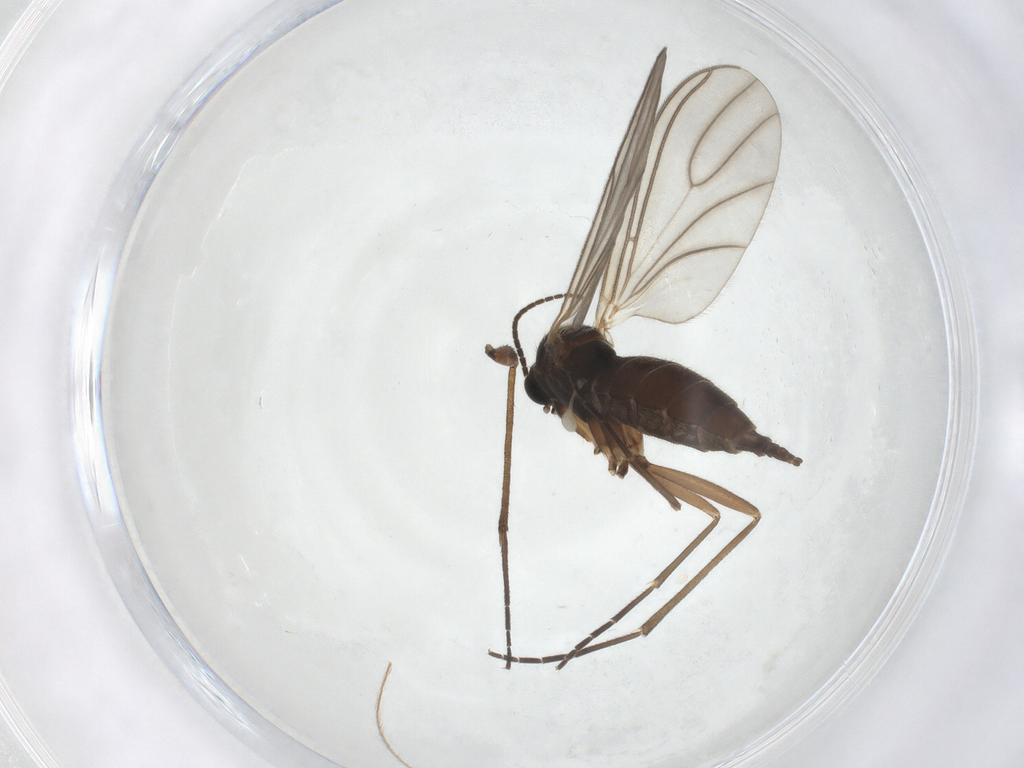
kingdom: Animalia
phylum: Arthropoda
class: Insecta
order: Diptera
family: Sciaridae
